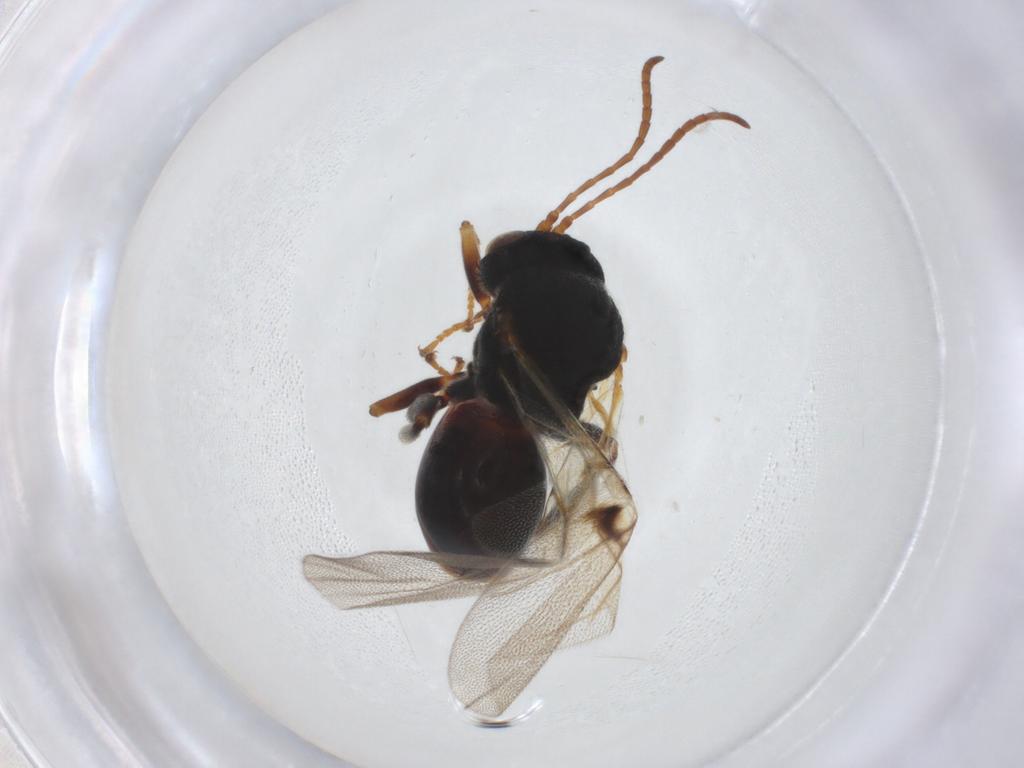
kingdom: Animalia
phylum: Arthropoda
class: Insecta
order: Hymenoptera
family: Cynipidae
